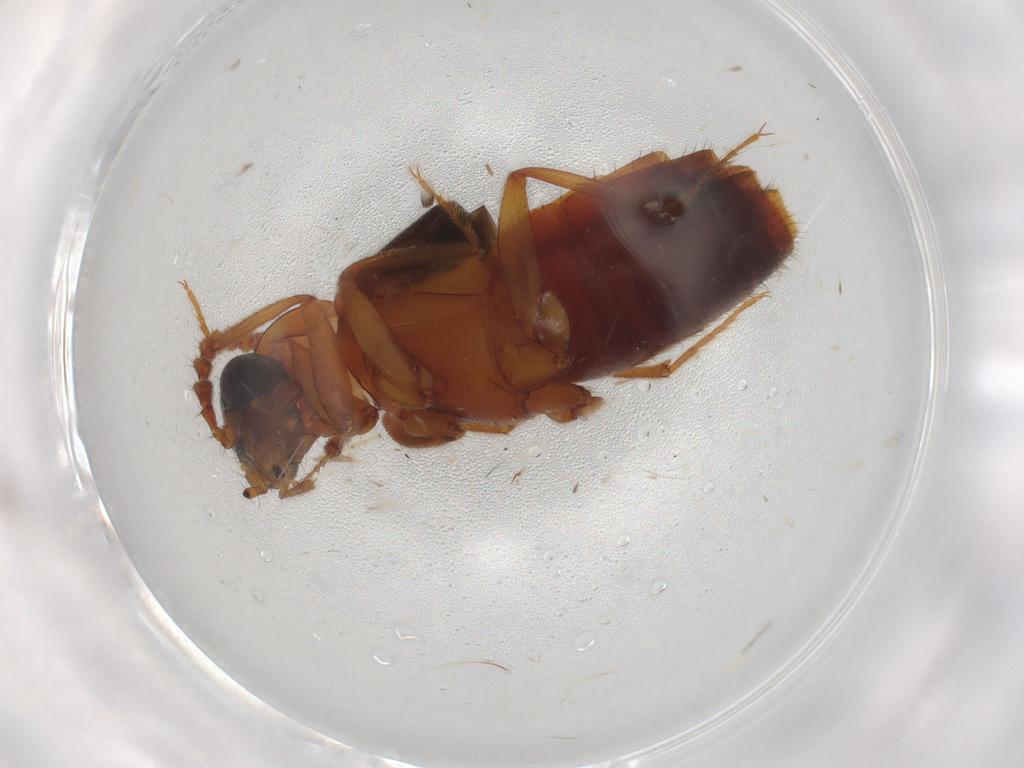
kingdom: Animalia
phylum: Arthropoda
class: Insecta
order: Coleoptera
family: Staphylinidae
